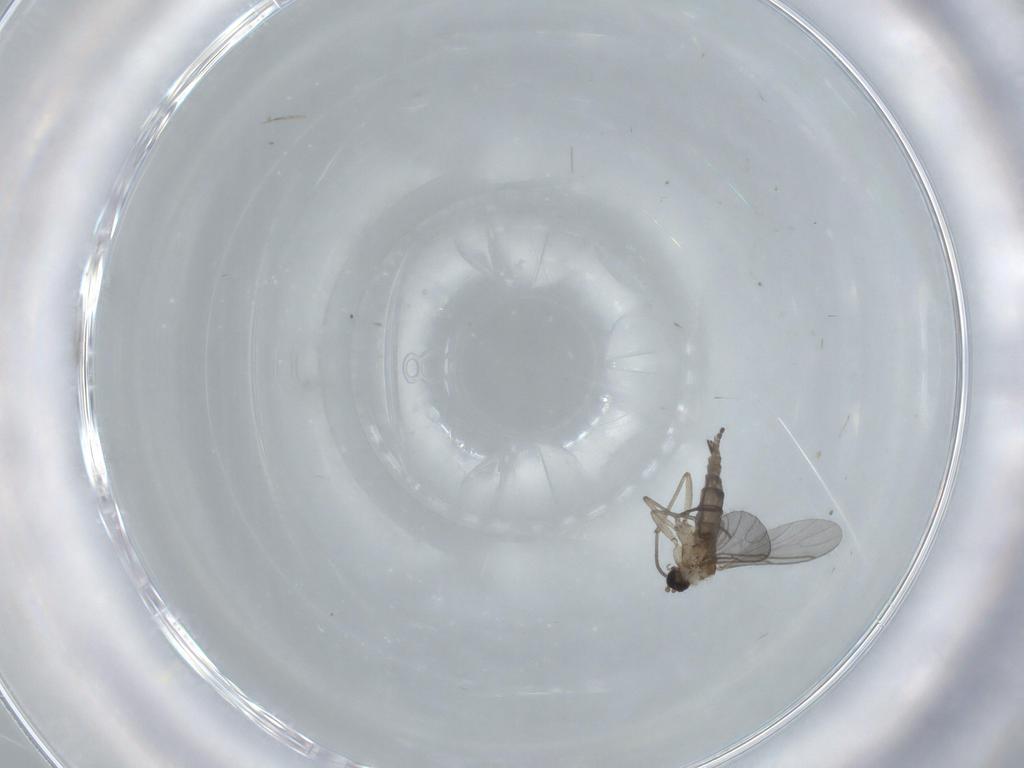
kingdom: Animalia
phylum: Arthropoda
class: Insecta
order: Diptera
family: Sciaridae
